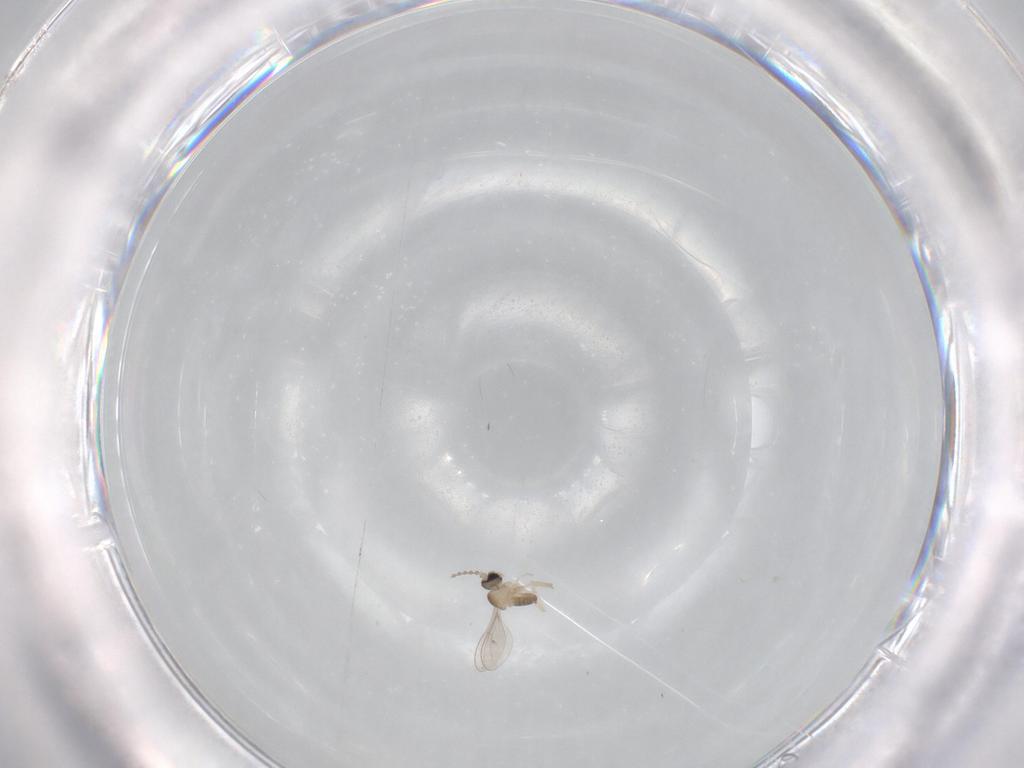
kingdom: Animalia
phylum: Arthropoda
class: Insecta
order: Diptera
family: Cecidomyiidae
